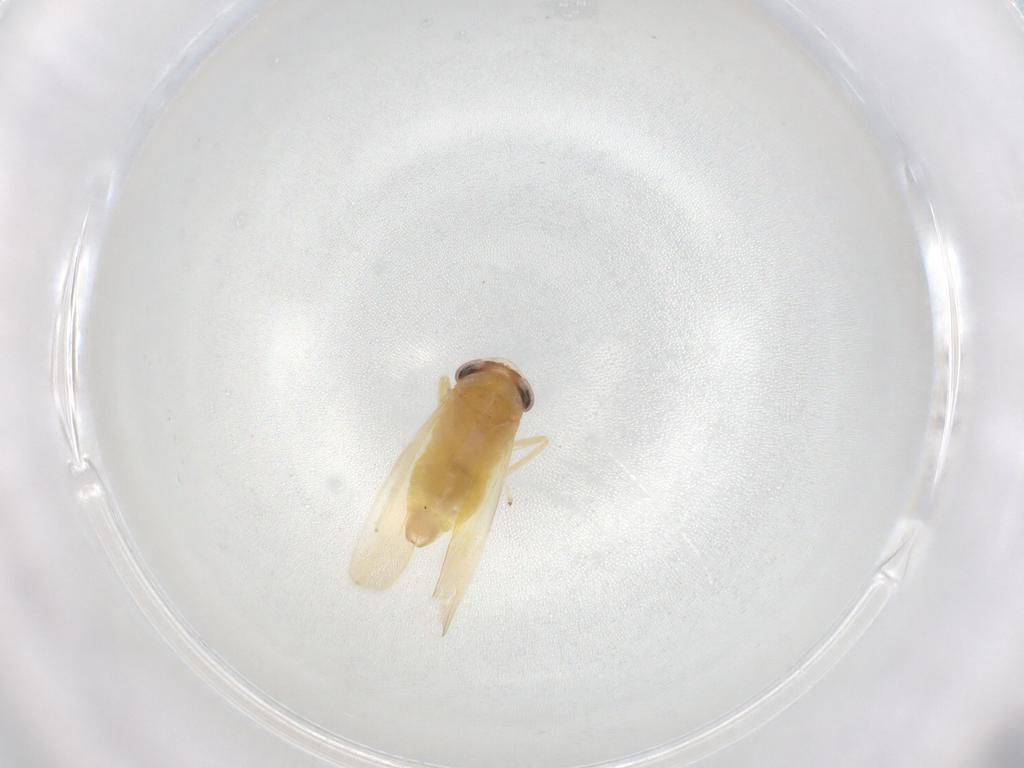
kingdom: Animalia
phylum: Arthropoda
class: Insecta
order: Hemiptera
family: Cicadellidae
